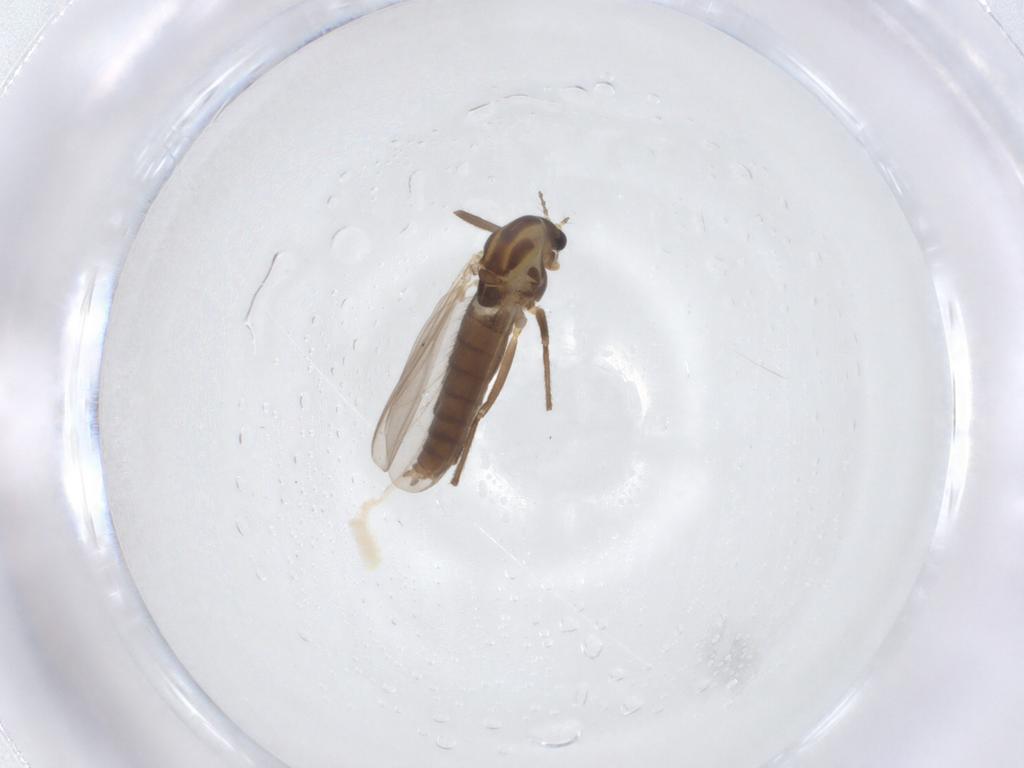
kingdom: Animalia
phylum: Arthropoda
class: Insecta
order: Diptera
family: Chironomidae
